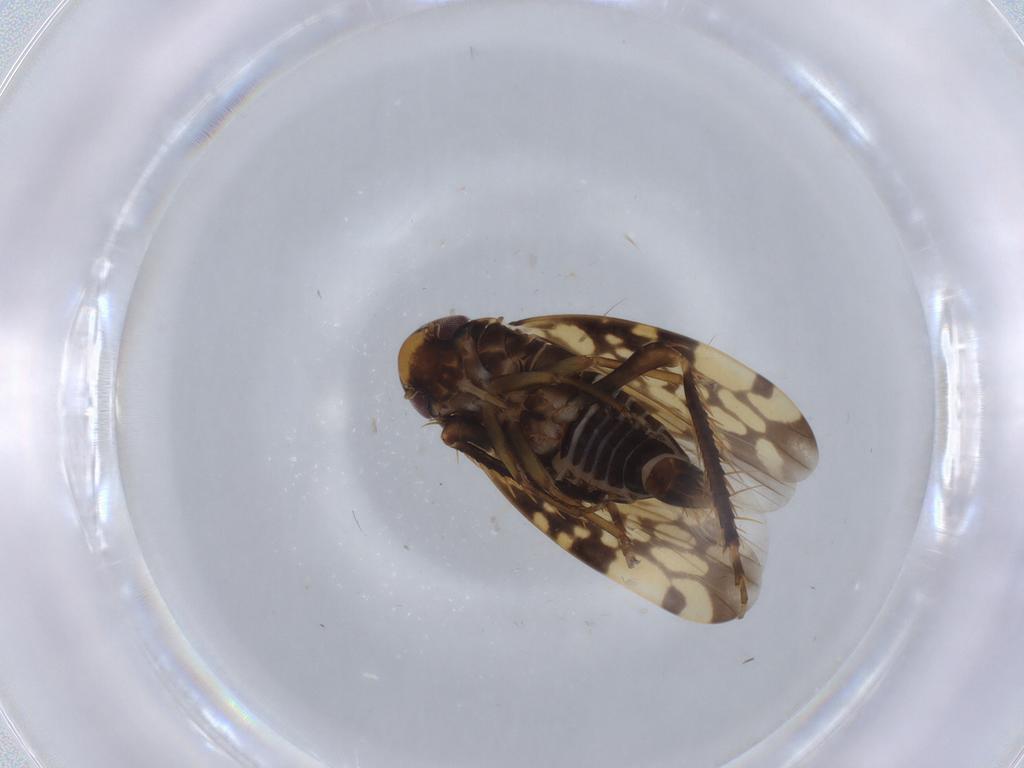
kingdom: Animalia
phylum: Arthropoda
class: Insecta
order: Hemiptera
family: Cicadellidae
